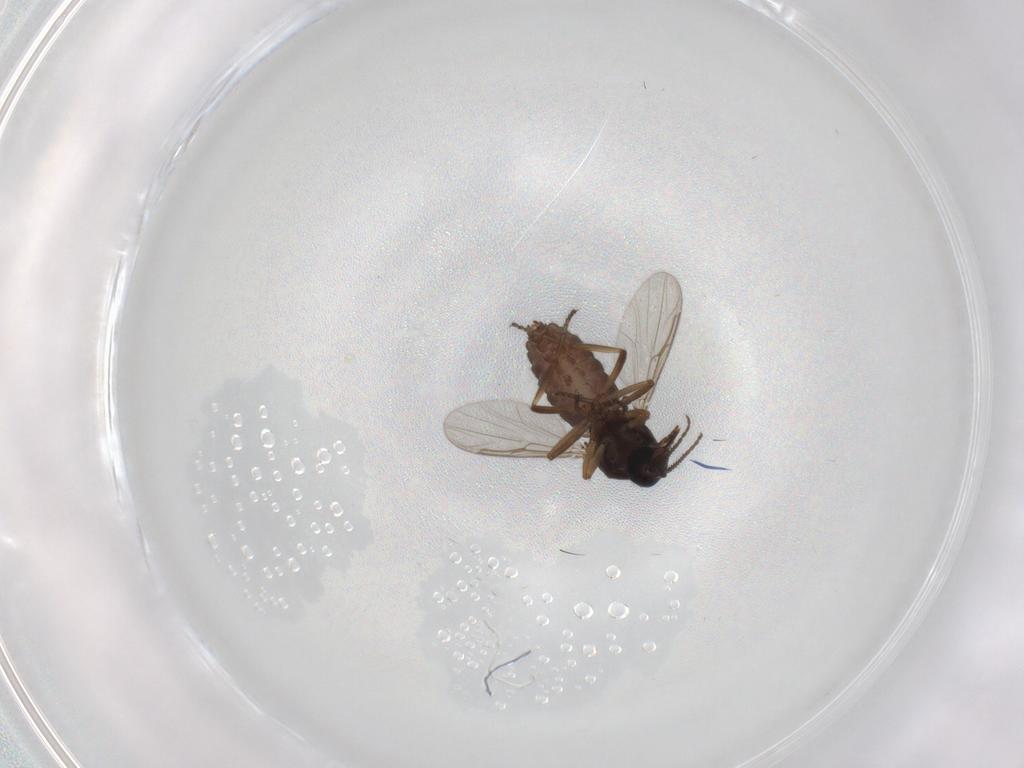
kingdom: Animalia
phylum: Arthropoda
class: Insecta
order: Diptera
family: Ceratopogonidae
